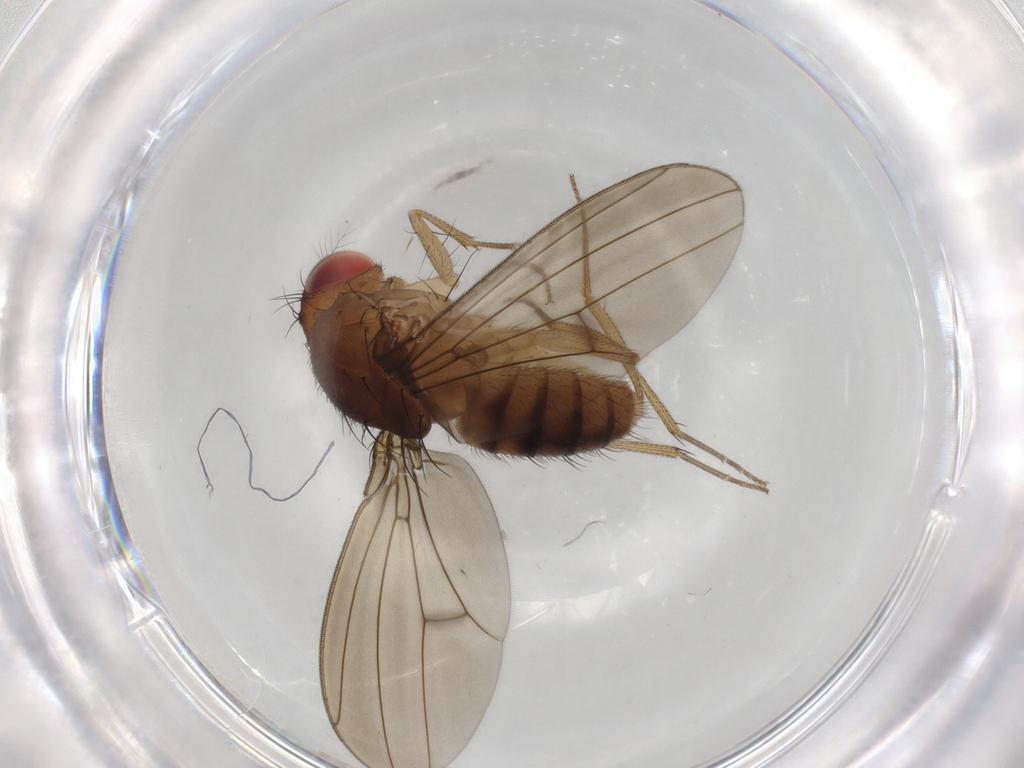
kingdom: Animalia
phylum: Arthropoda
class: Insecta
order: Diptera
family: Drosophilidae
